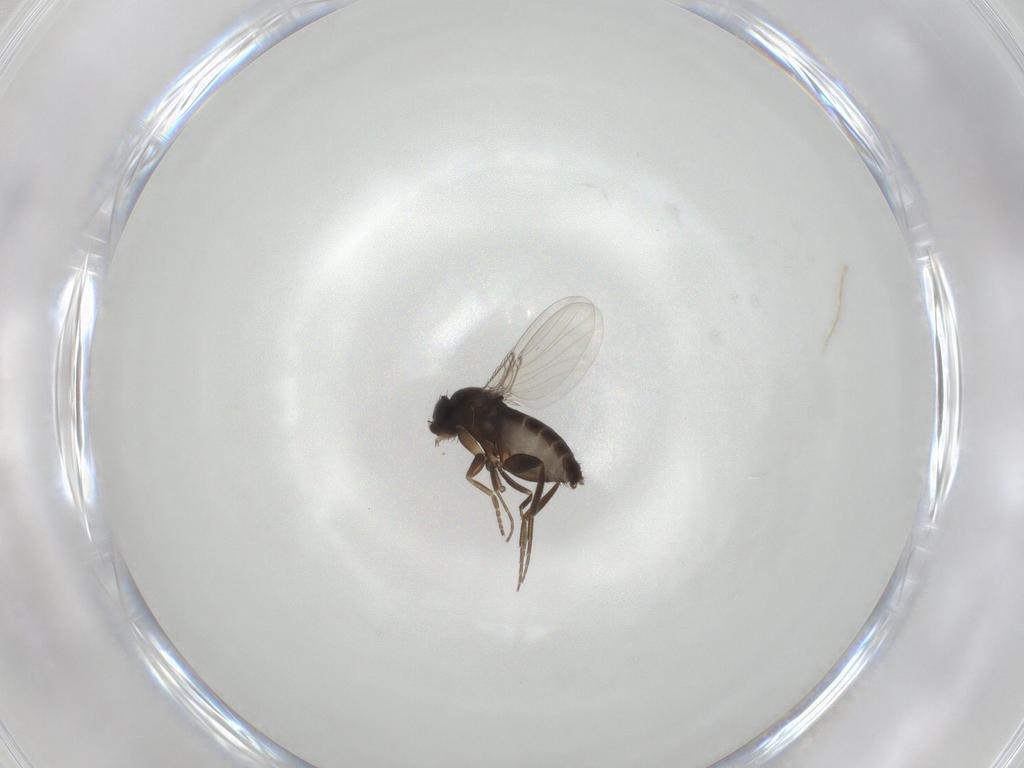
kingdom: Animalia
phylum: Arthropoda
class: Insecta
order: Diptera
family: Phoridae
